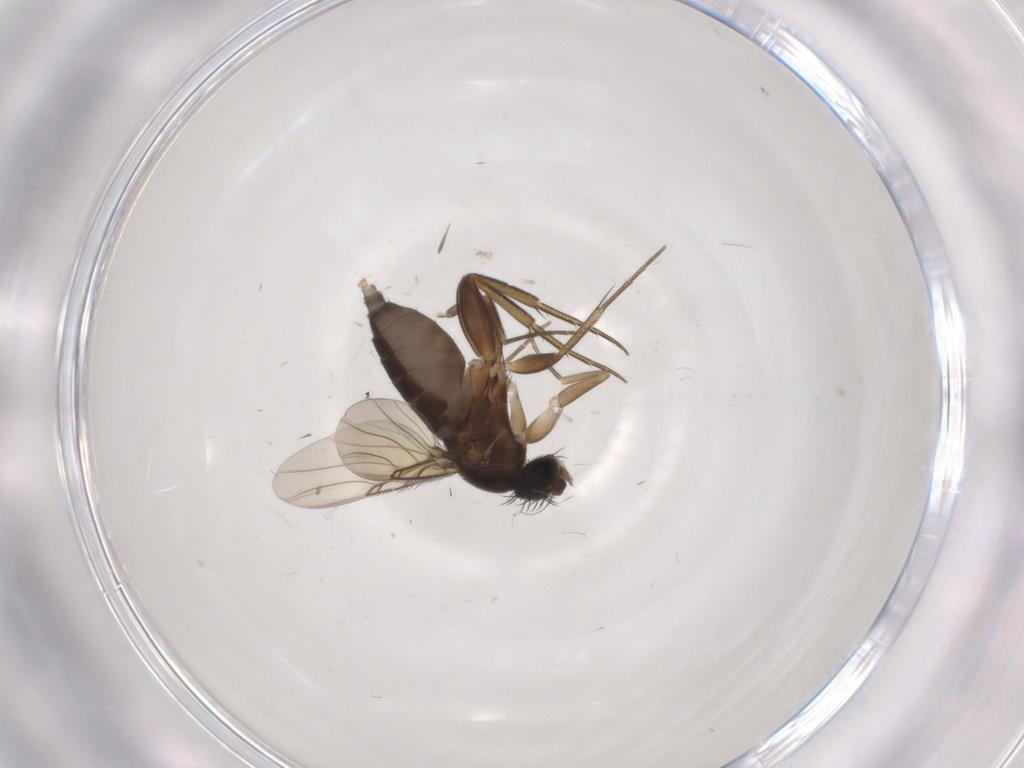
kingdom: Animalia
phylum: Arthropoda
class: Insecta
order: Diptera
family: Phoridae
